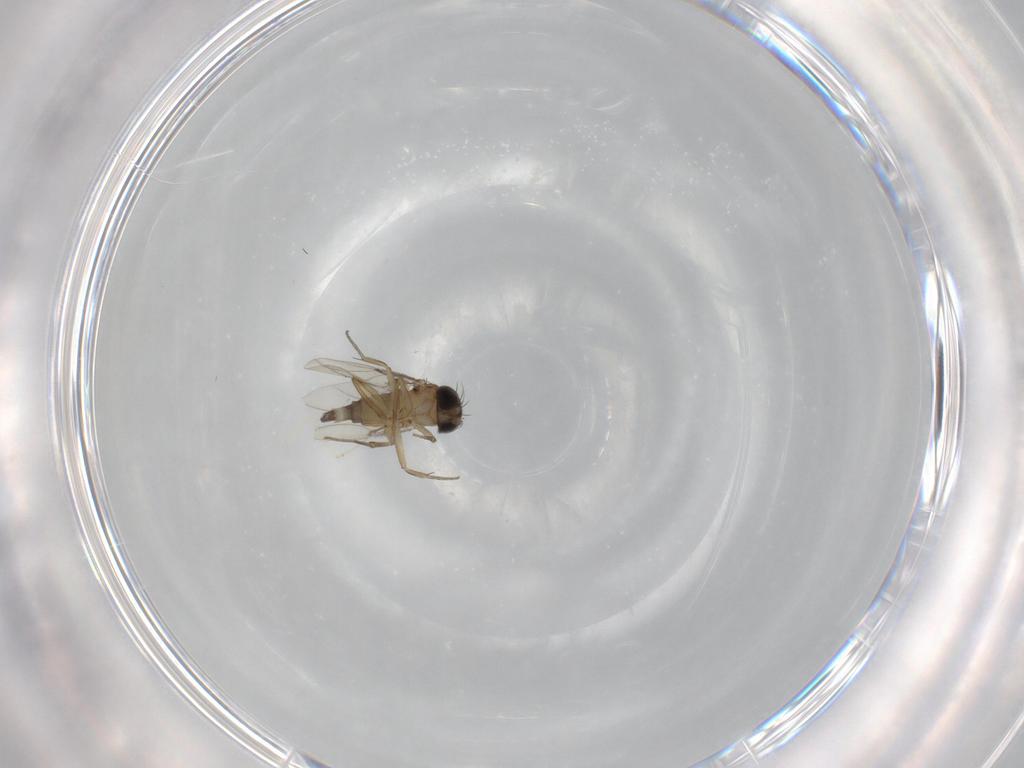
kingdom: Animalia
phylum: Arthropoda
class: Insecta
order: Diptera
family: Phoridae
